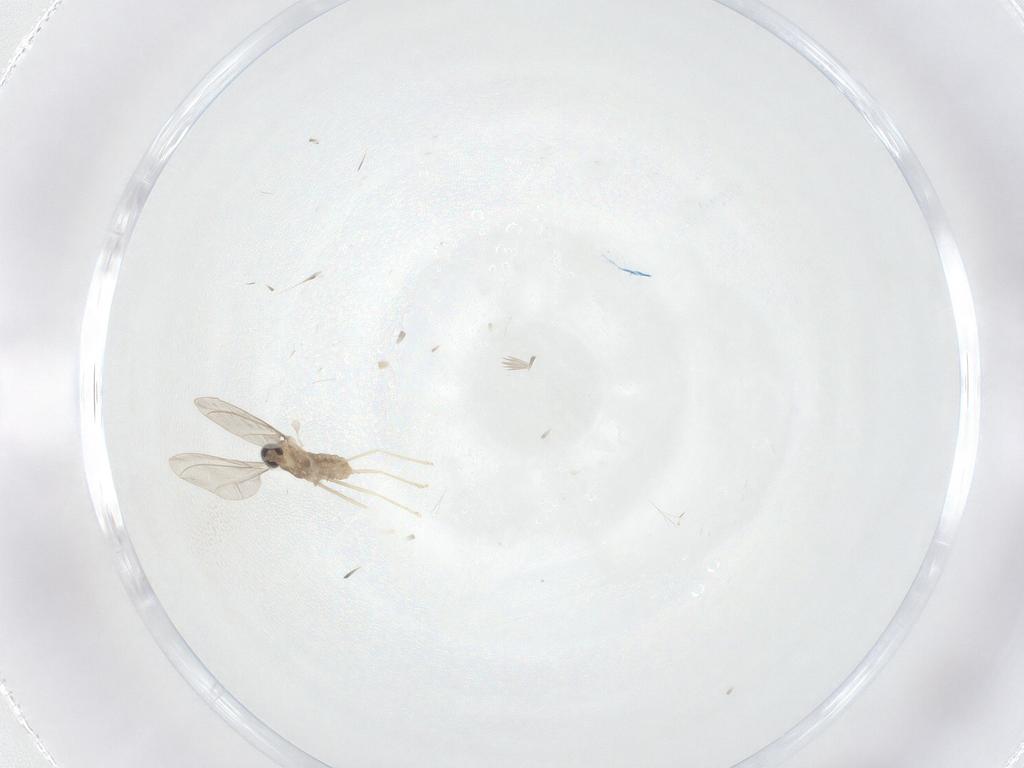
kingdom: Animalia
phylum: Arthropoda
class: Insecta
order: Diptera
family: Cecidomyiidae
